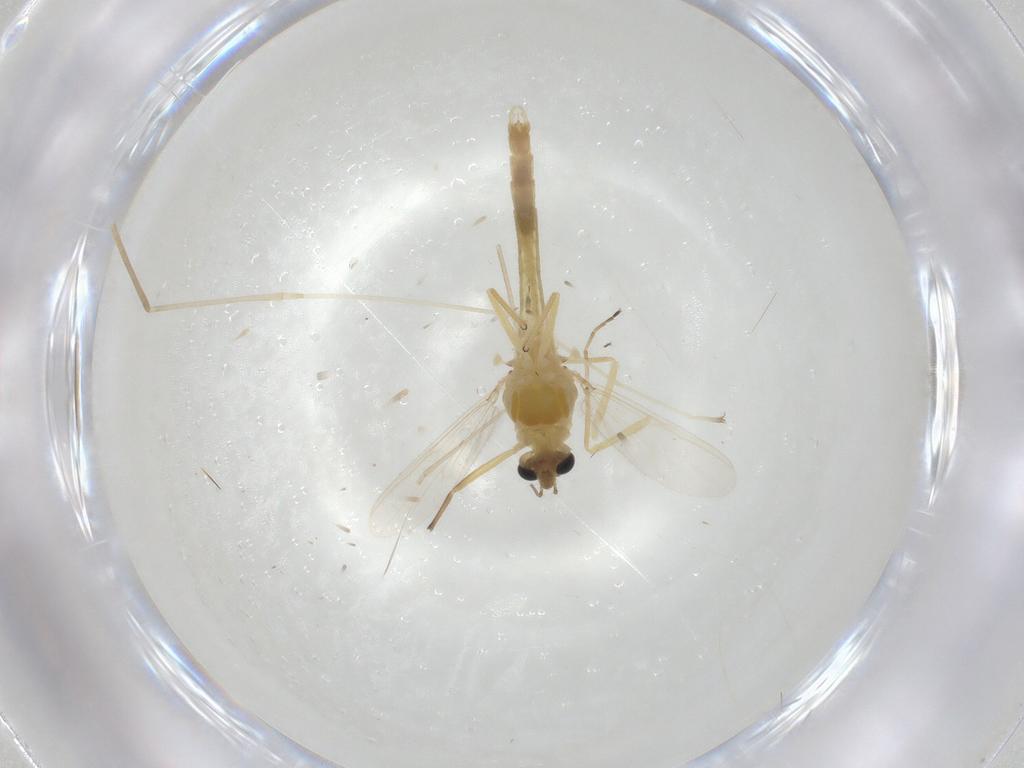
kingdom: Animalia
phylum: Arthropoda
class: Insecta
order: Diptera
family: Chironomidae
